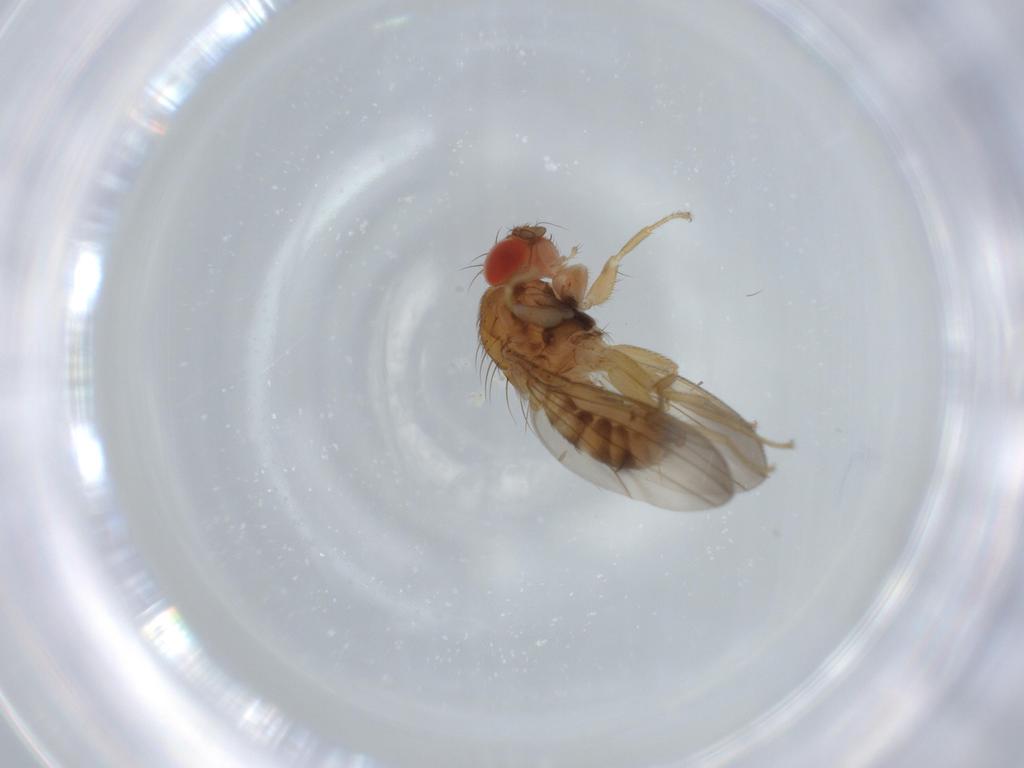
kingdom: Animalia
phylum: Arthropoda
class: Insecta
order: Diptera
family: Drosophilidae
